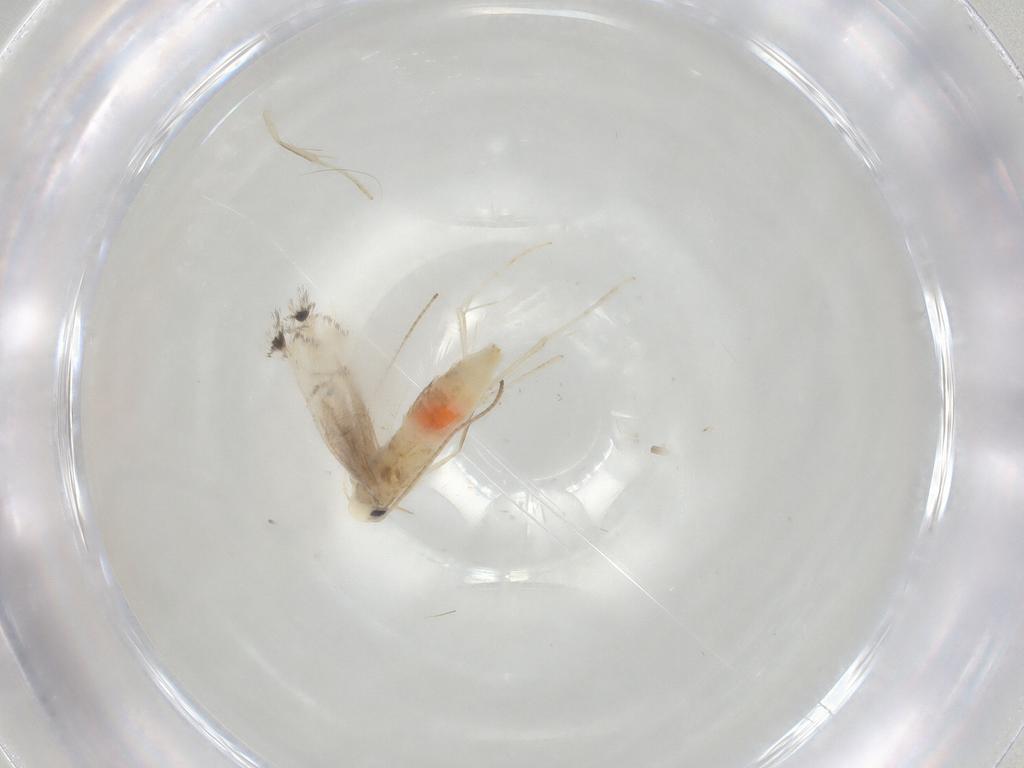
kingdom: Animalia
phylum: Arthropoda
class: Insecta
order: Lepidoptera
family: Gracillariidae
